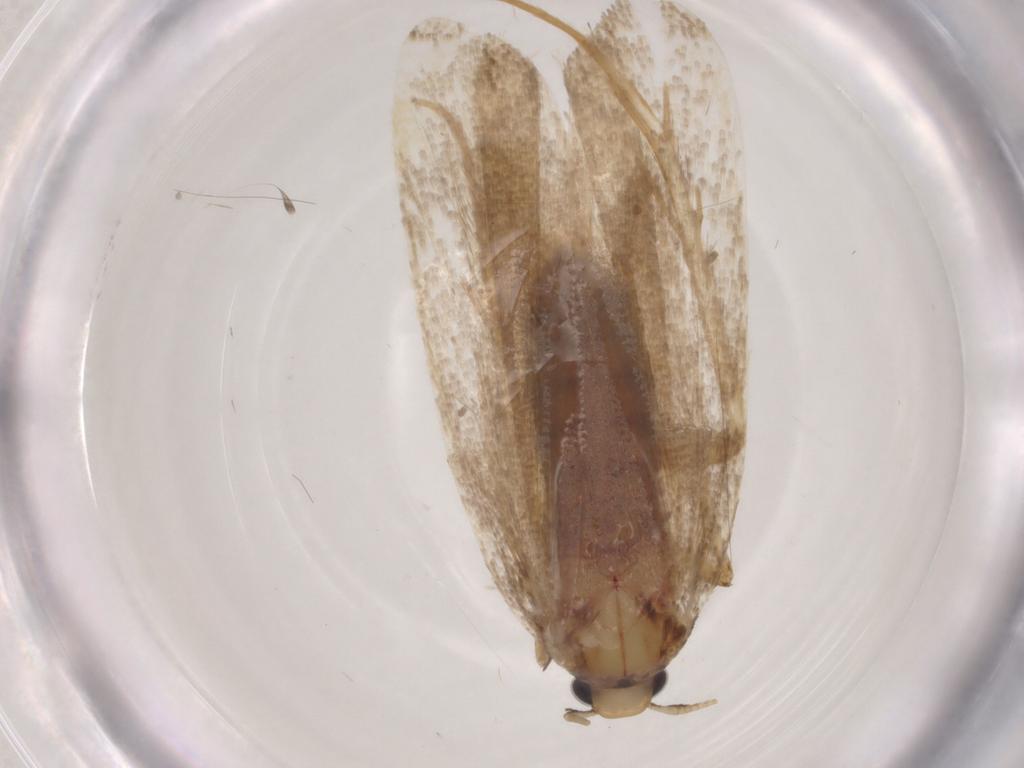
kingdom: Animalia
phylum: Arthropoda
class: Insecta
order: Lepidoptera
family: Lecithoceridae
